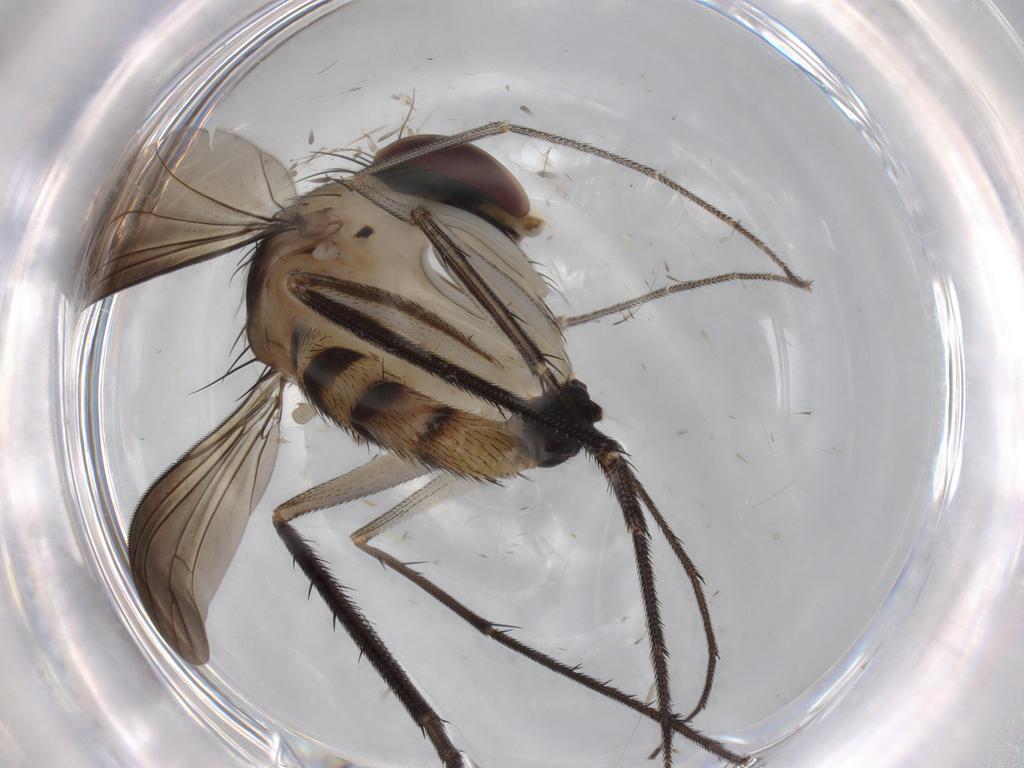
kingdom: Animalia
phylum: Arthropoda
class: Insecta
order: Diptera
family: Dolichopodidae
